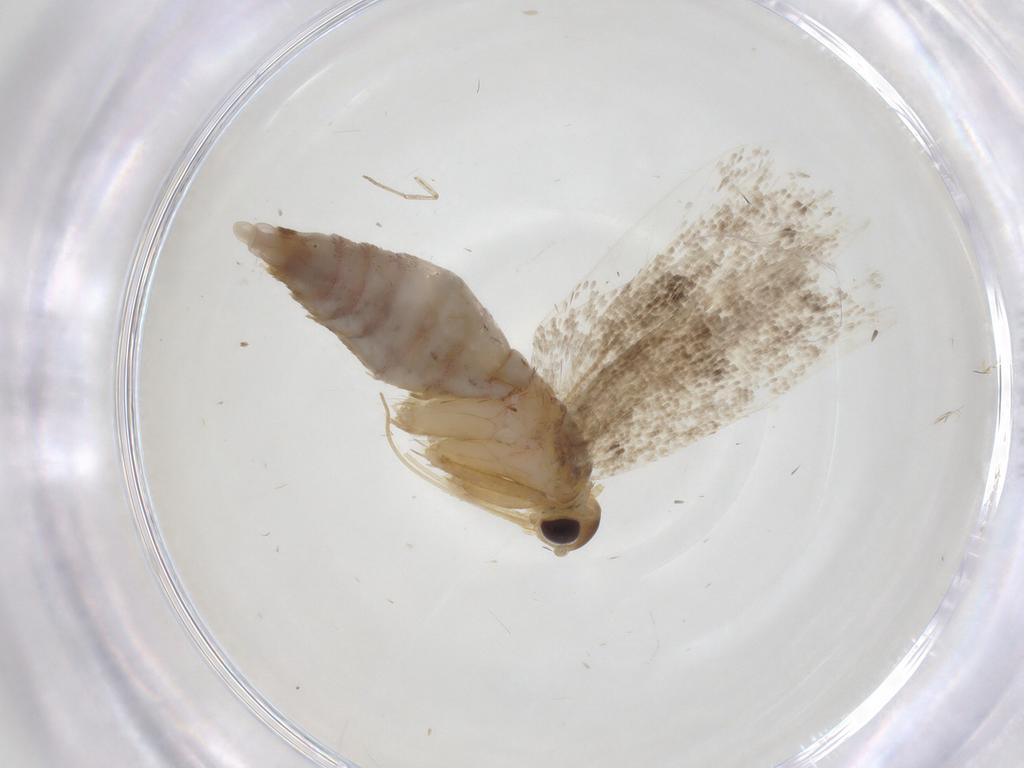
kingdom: Animalia
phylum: Arthropoda
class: Insecta
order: Lepidoptera
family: Lecithoceridae
